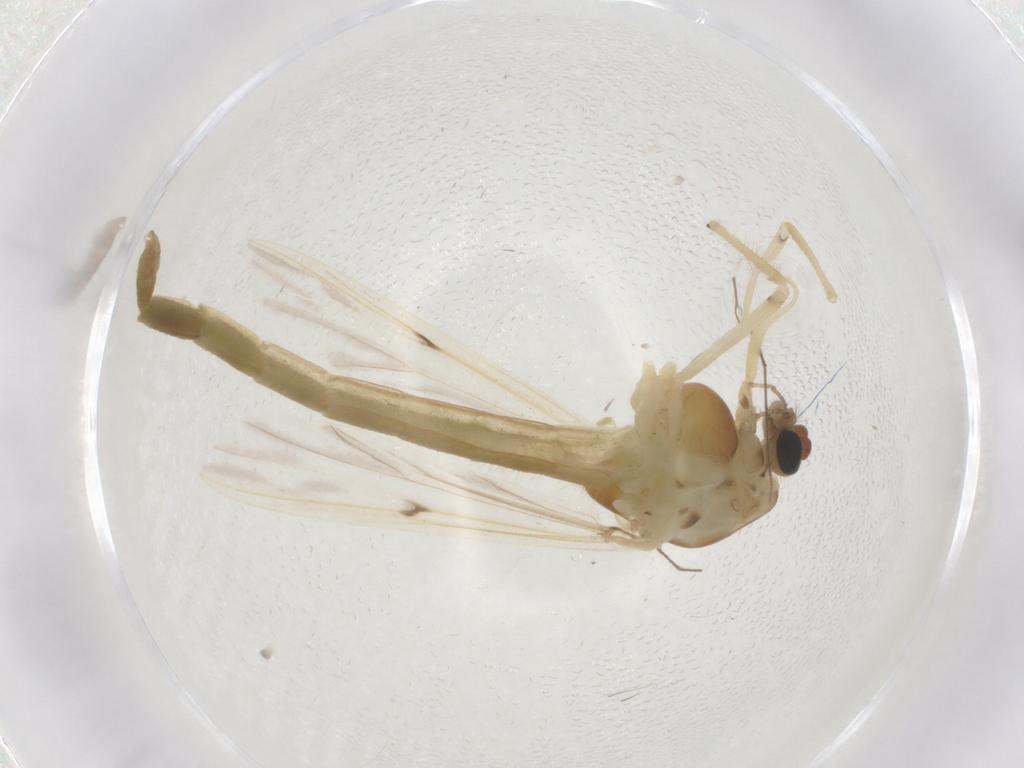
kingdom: Animalia
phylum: Arthropoda
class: Insecta
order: Diptera
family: Chironomidae
